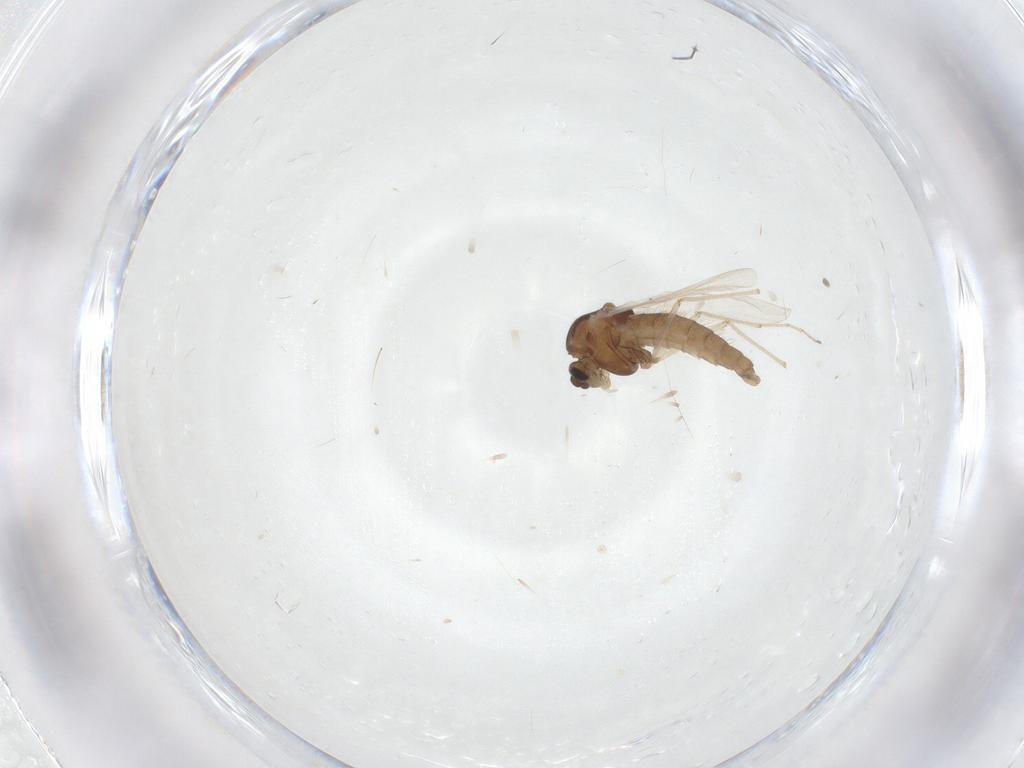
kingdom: Animalia
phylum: Arthropoda
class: Insecta
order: Diptera
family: Chironomidae
